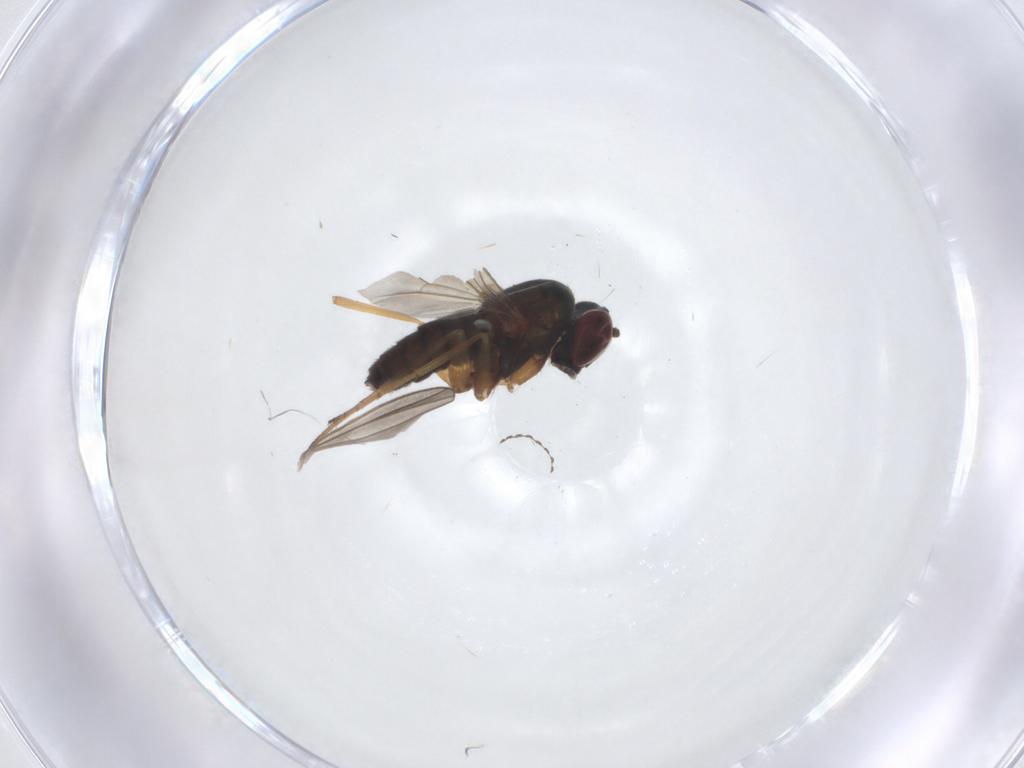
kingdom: Animalia
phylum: Arthropoda
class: Insecta
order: Diptera
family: Dolichopodidae
